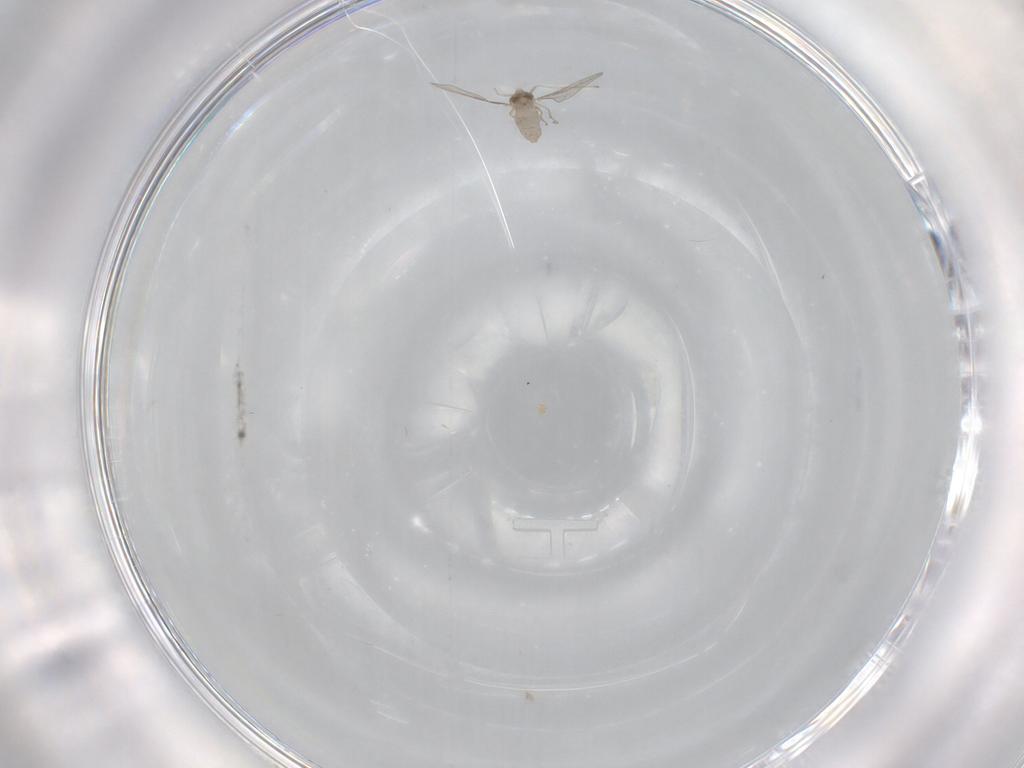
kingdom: Animalia
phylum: Arthropoda
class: Insecta
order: Diptera
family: Cecidomyiidae
